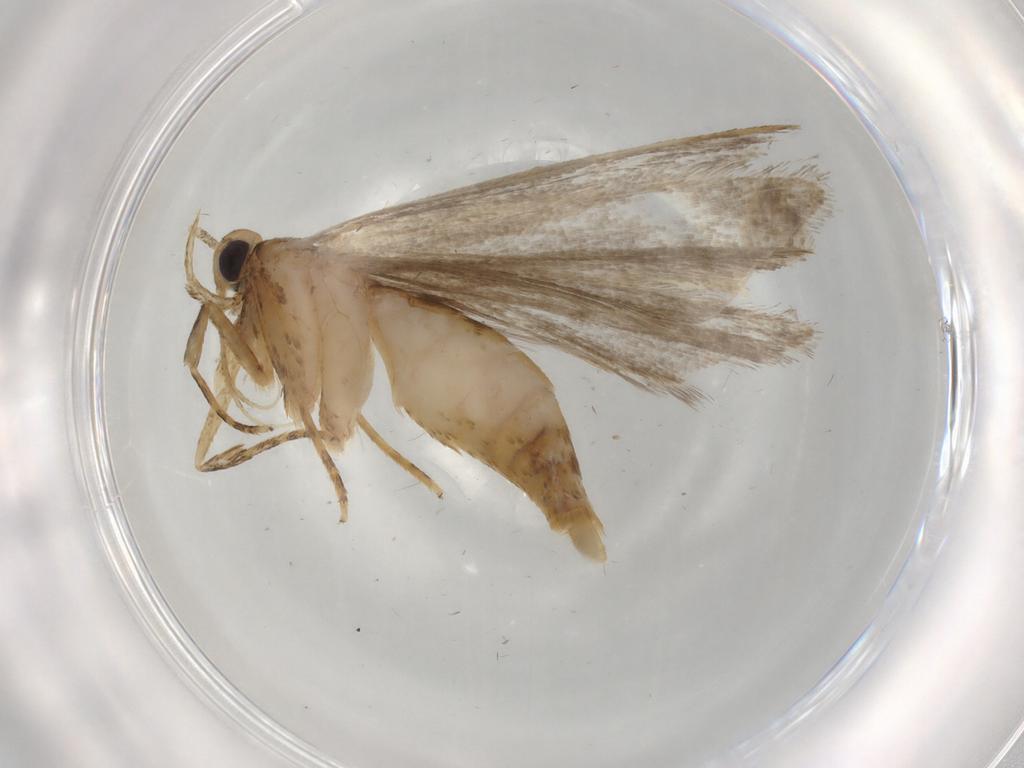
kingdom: Animalia
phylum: Arthropoda
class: Insecta
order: Lepidoptera
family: Autostichidae
